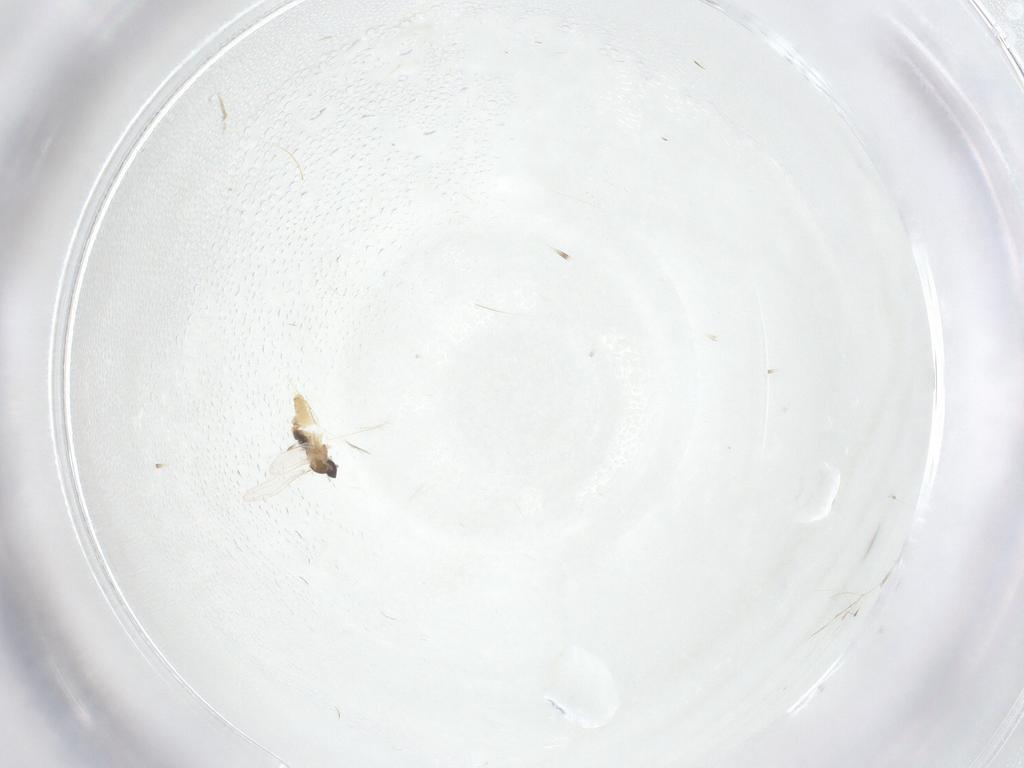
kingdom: Animalia
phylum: Arthropoda
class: Insecta
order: Diptera
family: Cecidomyiidae
